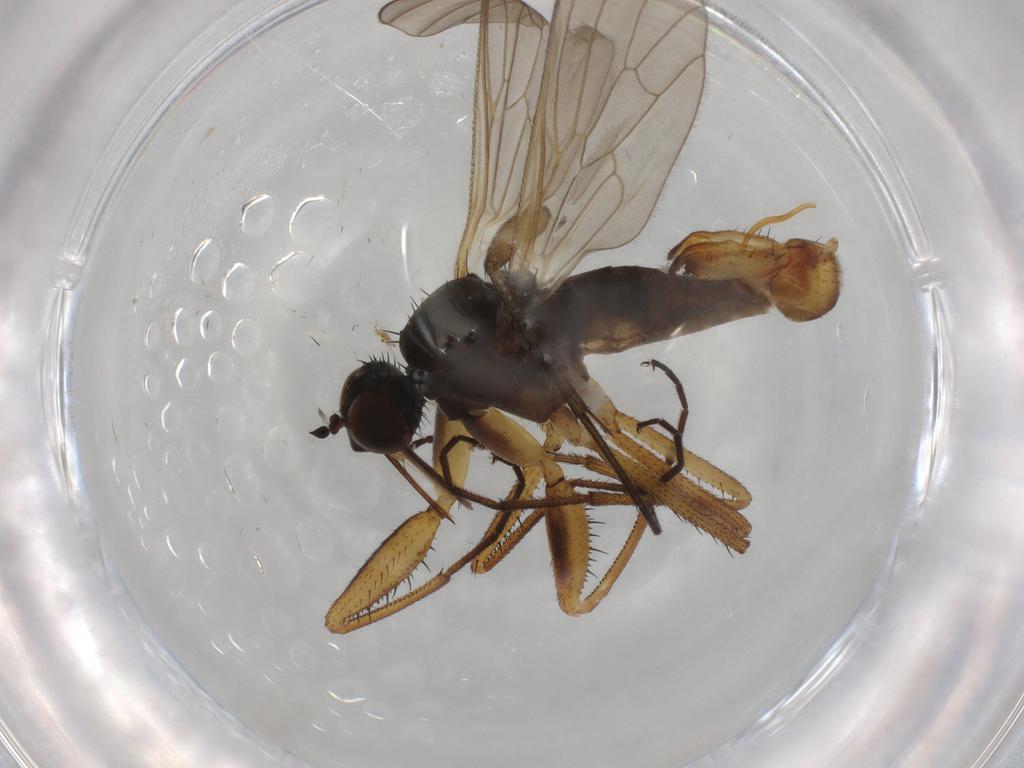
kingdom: Animalia
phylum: Arthropoda
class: Insecta
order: Diptera
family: Empididae
